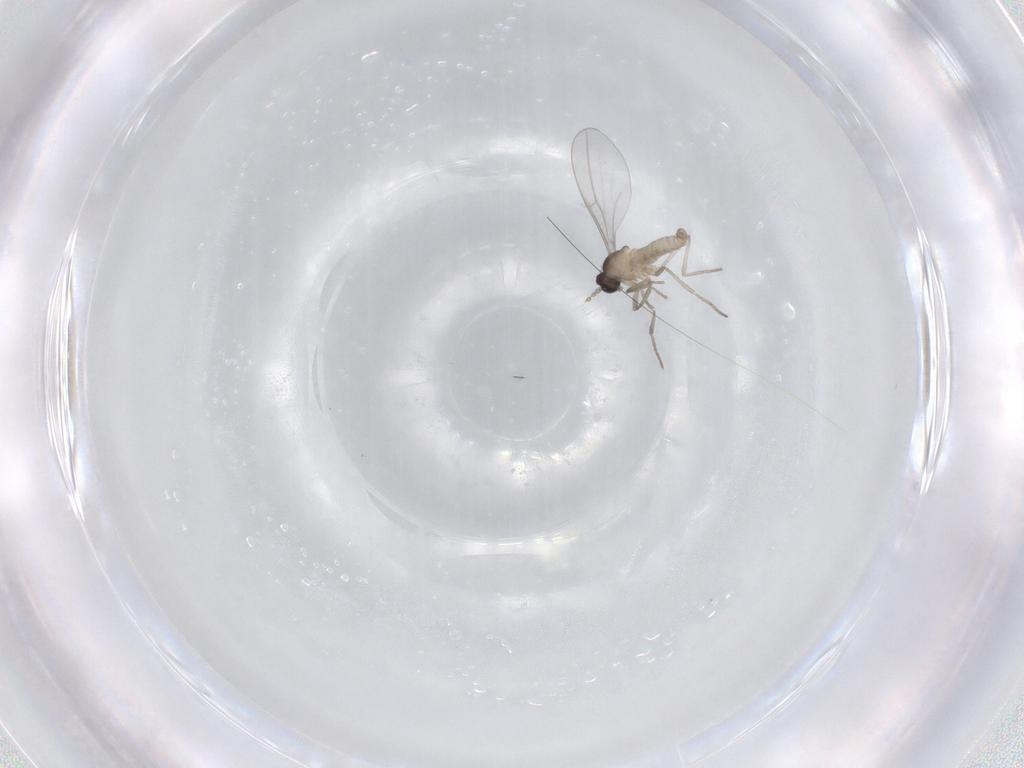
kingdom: Animalia
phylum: Arthropoda
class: Insecta
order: Diptera
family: Cecidomyiidae
